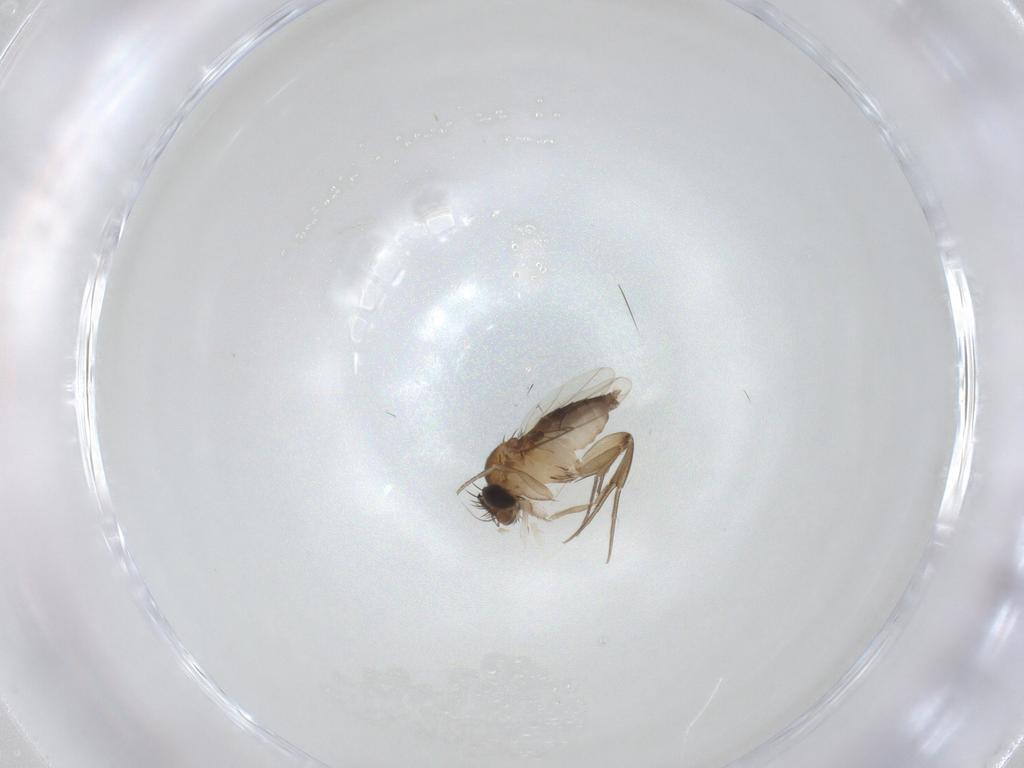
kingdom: Animalia
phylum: Arthropoda
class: Insecta
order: Diptera
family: Phoridae
